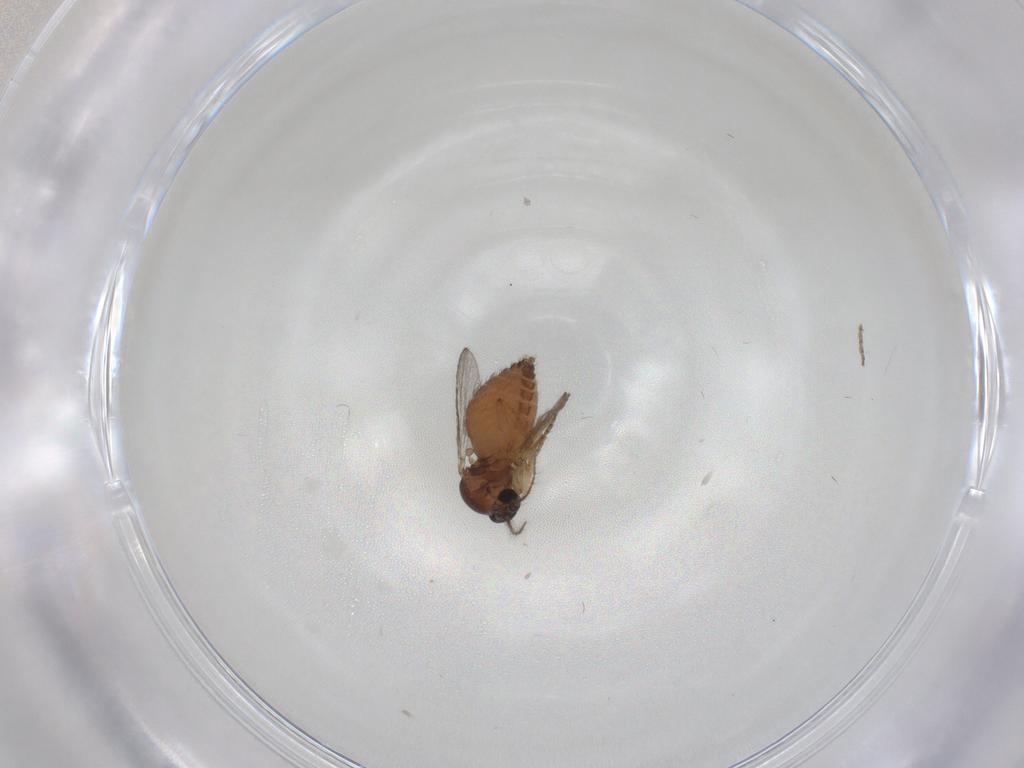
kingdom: Animalia
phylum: Arthropoda
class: Insecta
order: Diptera
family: Ceratopogonidae
